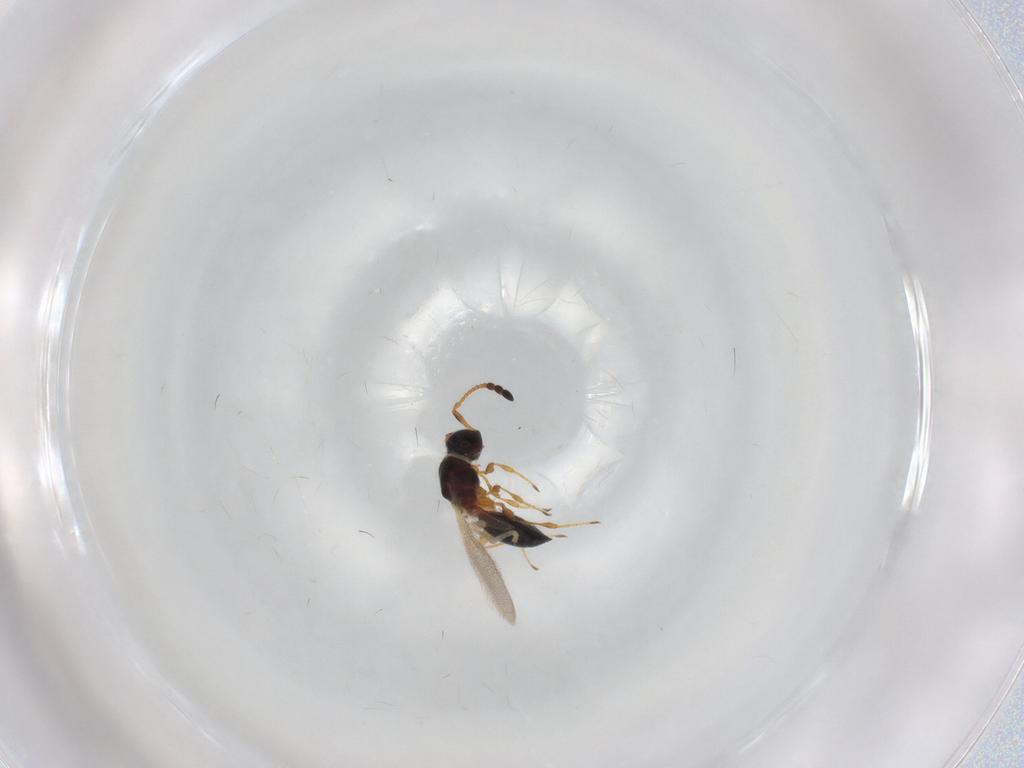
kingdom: Animalia
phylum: Arthropoda
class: Insecta
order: Hymenoptera
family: Diapriidae
